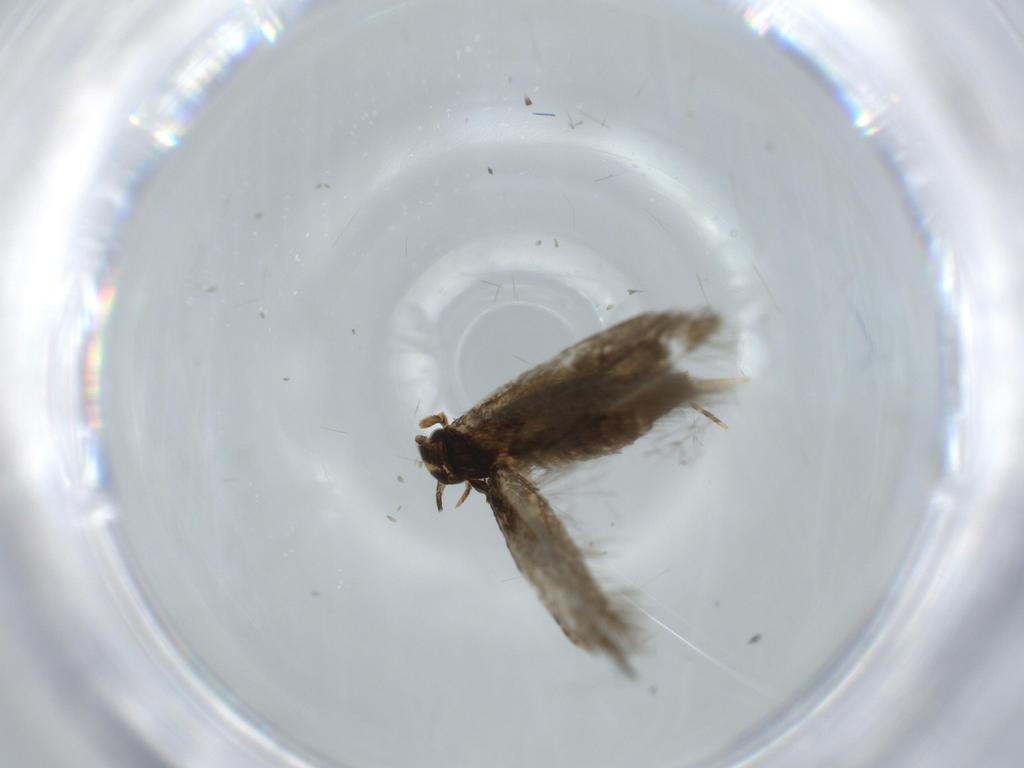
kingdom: Animalia
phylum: Arthropoda
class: Insecta
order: Lepidoptera
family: Tineidae
